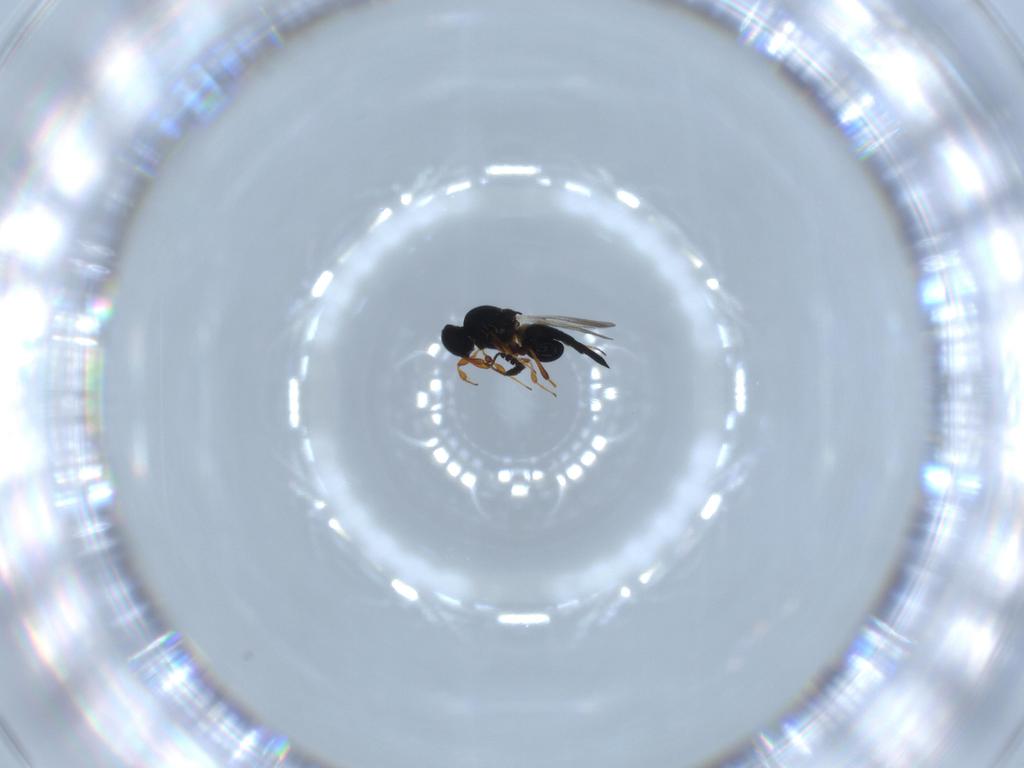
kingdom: Animalia
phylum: Arthropoda
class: Insecta
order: Hymenoptera
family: Platygastridae
